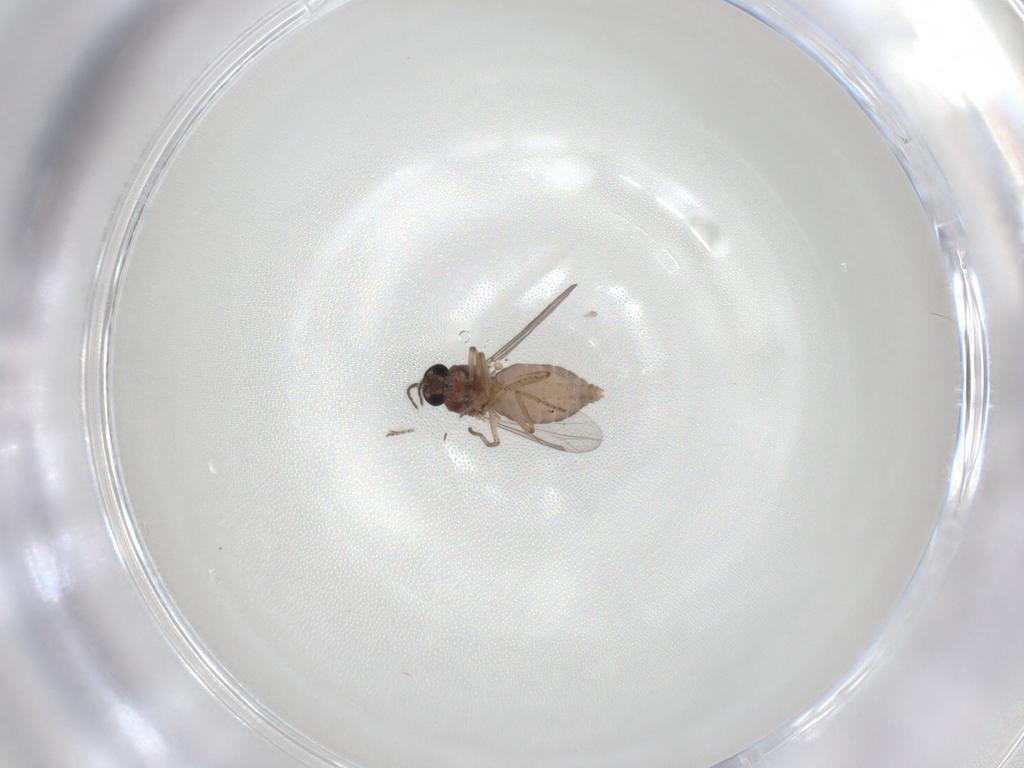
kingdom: Animalia
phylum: Arthropoda
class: Insecta
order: Diptera
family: Ceratopogonidae
